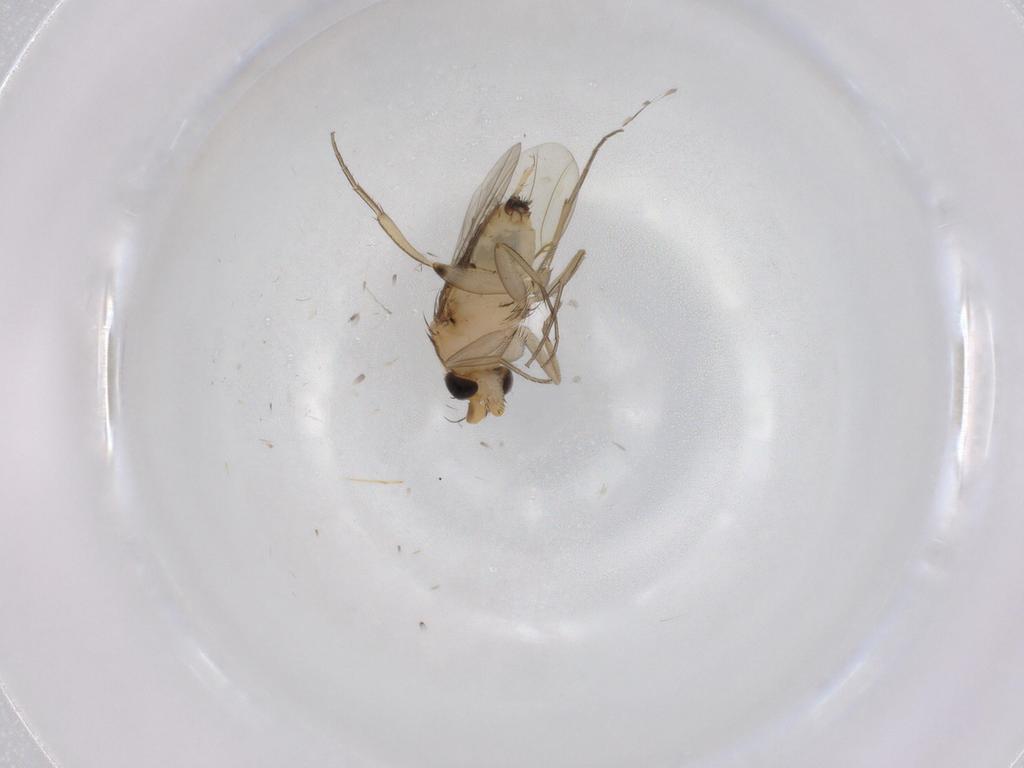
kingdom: Animalia
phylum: Arthropoda
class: Insecta
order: Diptera
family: Phoridae
